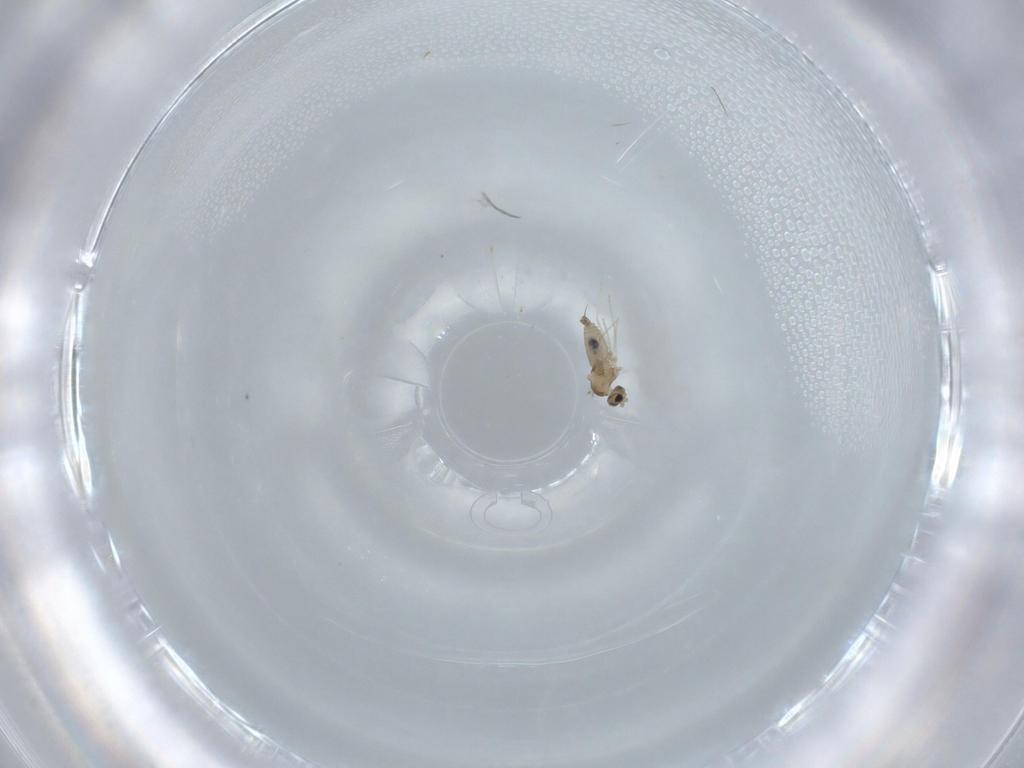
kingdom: Animalia
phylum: Arthropoda
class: Insecta
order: Diptera
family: Cecidomyiidae
